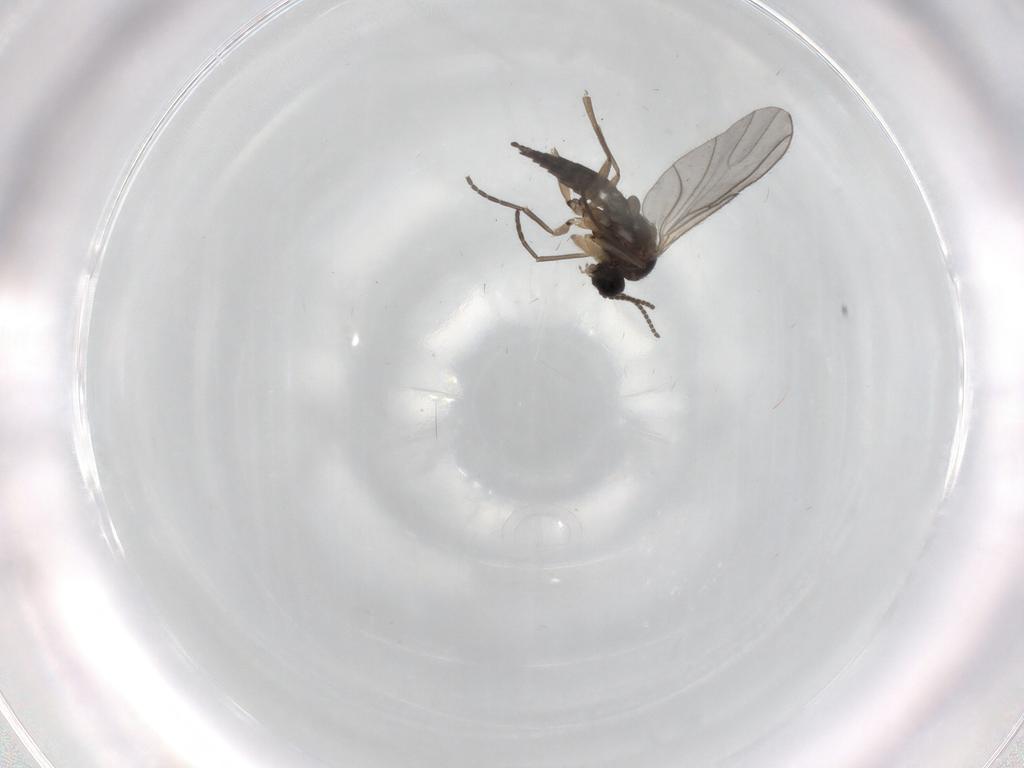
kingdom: Animalia
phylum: Arthropoda
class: Insecta
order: Diptera
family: Sciaridae
